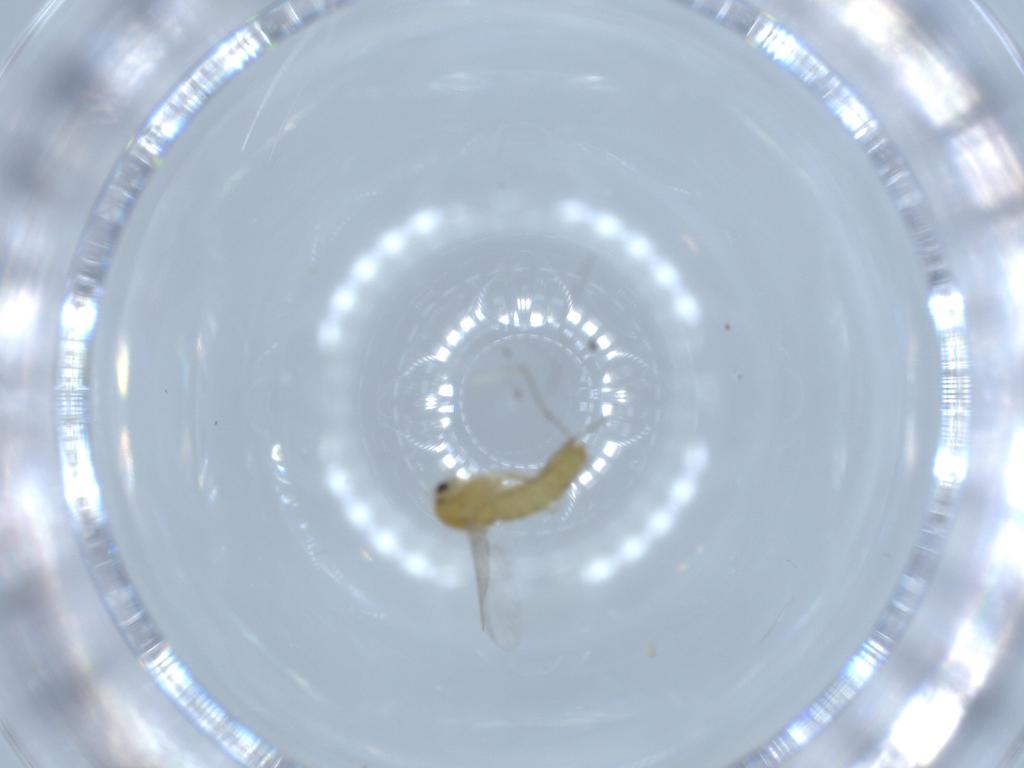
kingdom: Animalia
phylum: Arthropoda
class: Insecta
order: Diptera
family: Chironomidae
